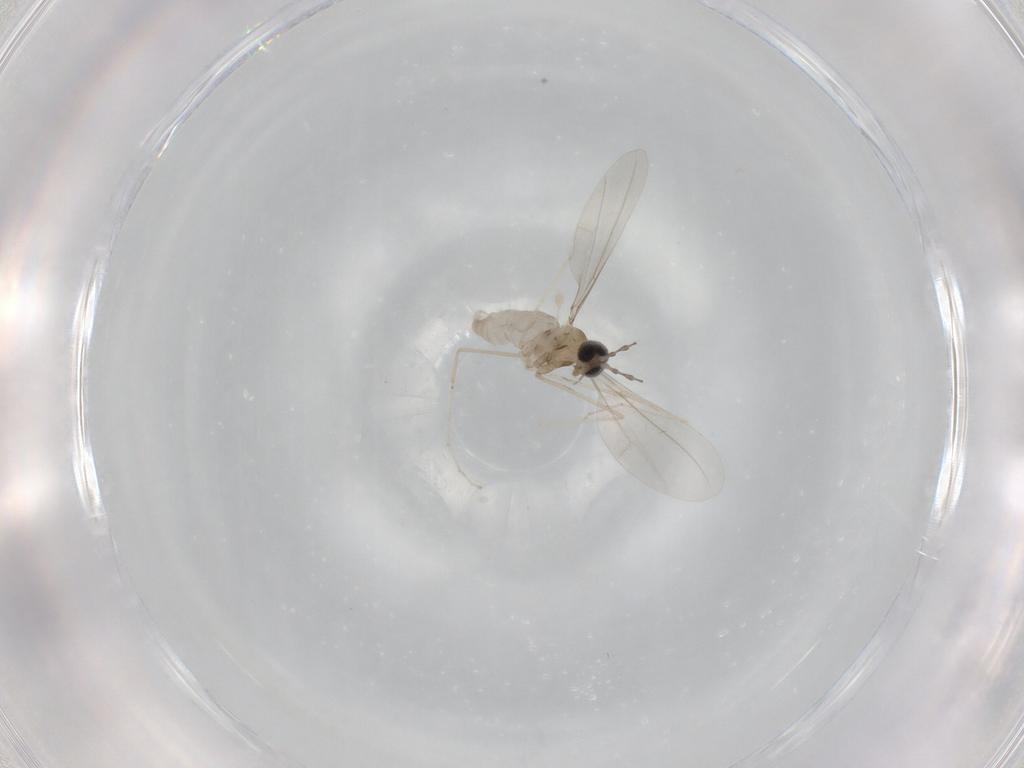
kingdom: Animalia
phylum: Arthropoda
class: Insecta
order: Diptera
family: Cecidomyiidae
